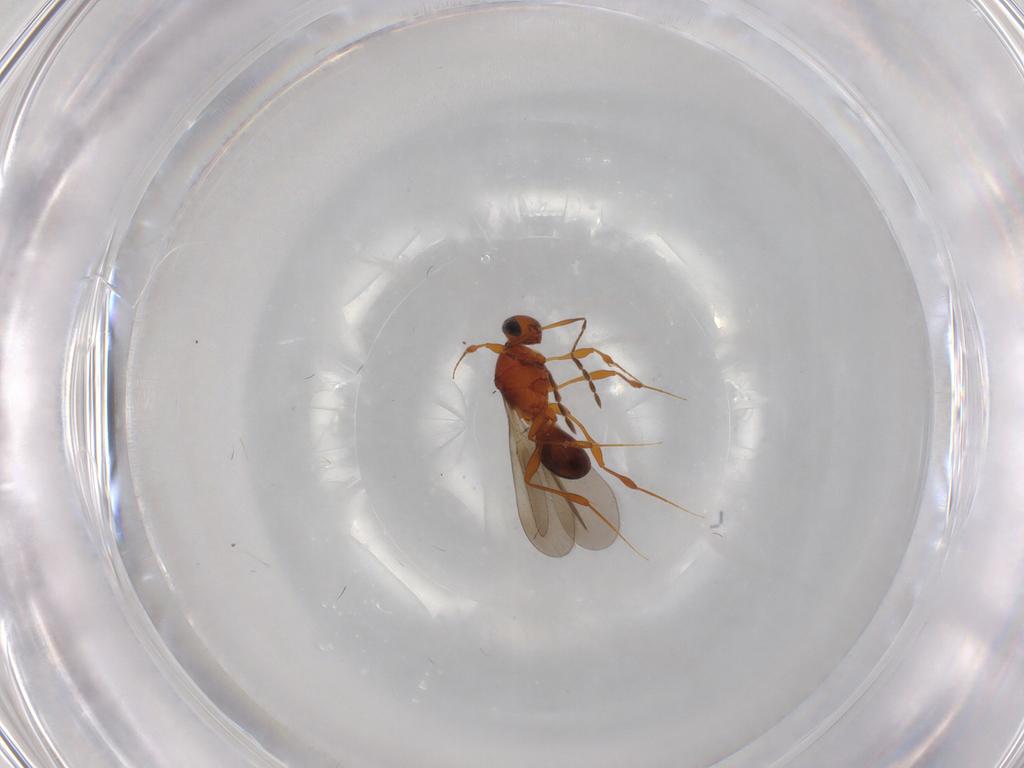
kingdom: Animalia
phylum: Arthropoda
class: Insecta
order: Hymenoptera
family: Platygastridae
